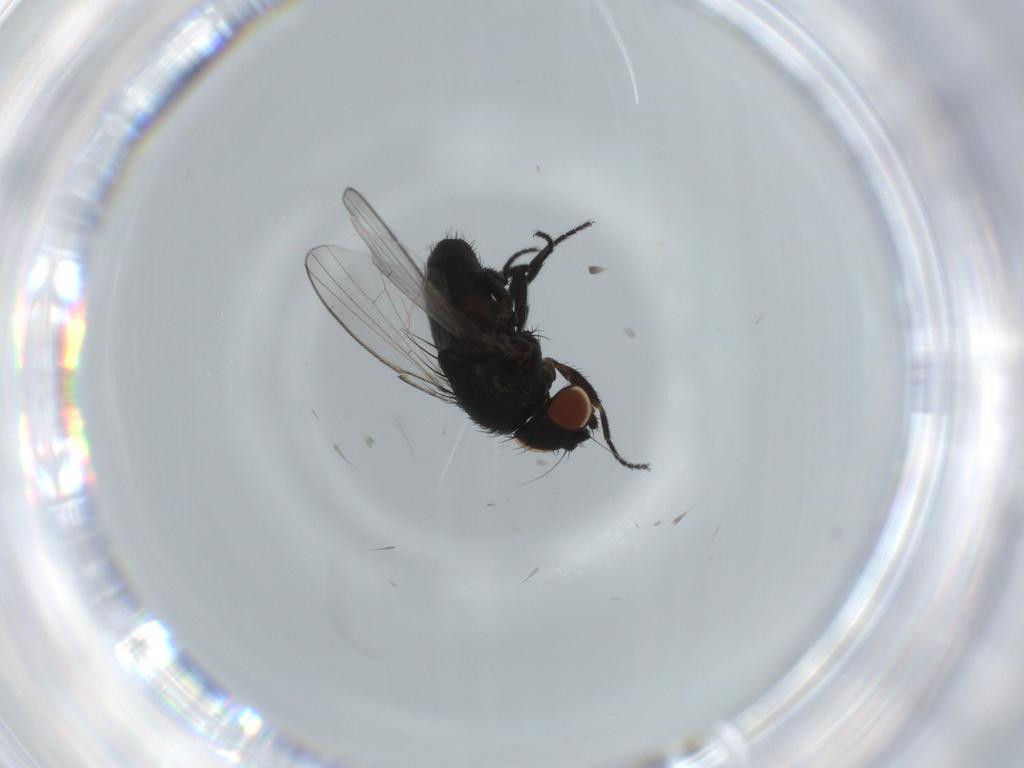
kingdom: Animalia
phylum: Arthropoda
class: Insecta
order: Diptera
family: Milichiidae
